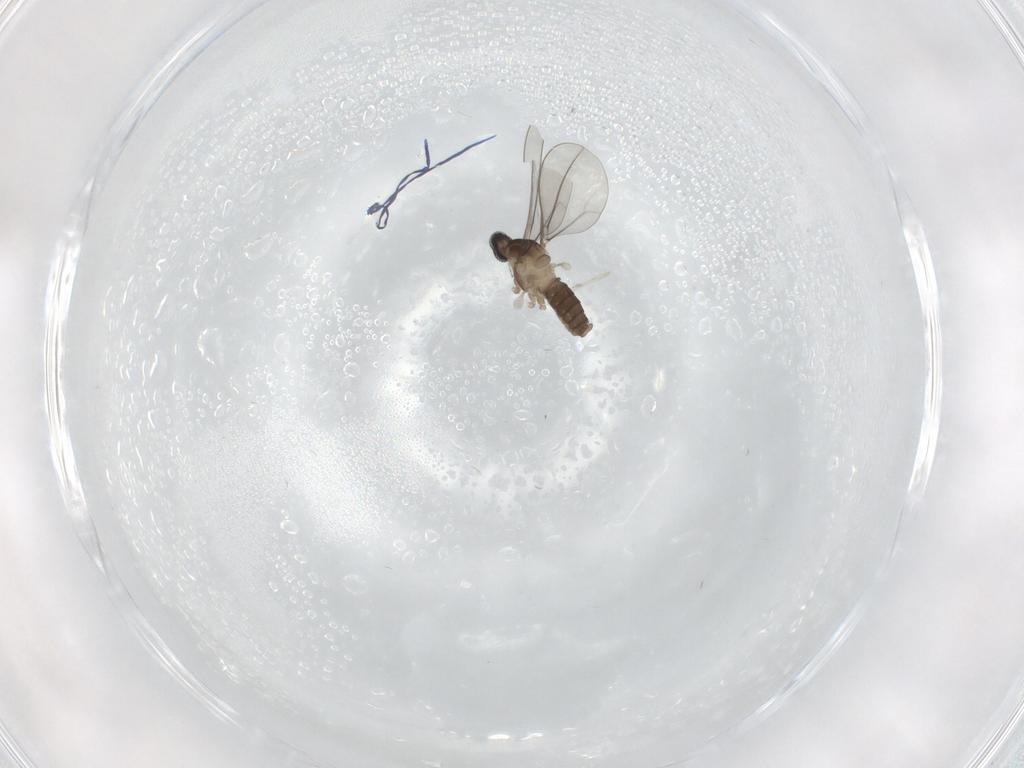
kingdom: Animalia
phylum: Arthropoda
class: Insecta
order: Diptera
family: Cecidomyiidae
